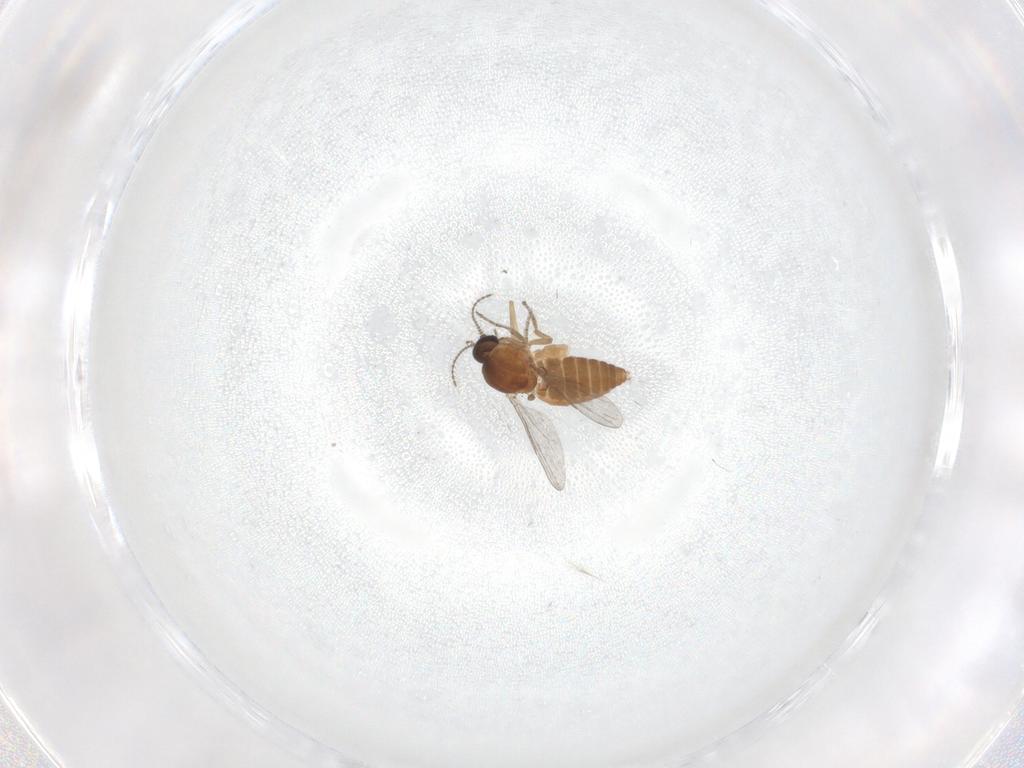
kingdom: Animalia
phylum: Arthropoda
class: Insecta
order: Diptera
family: Ceratopogonidae
